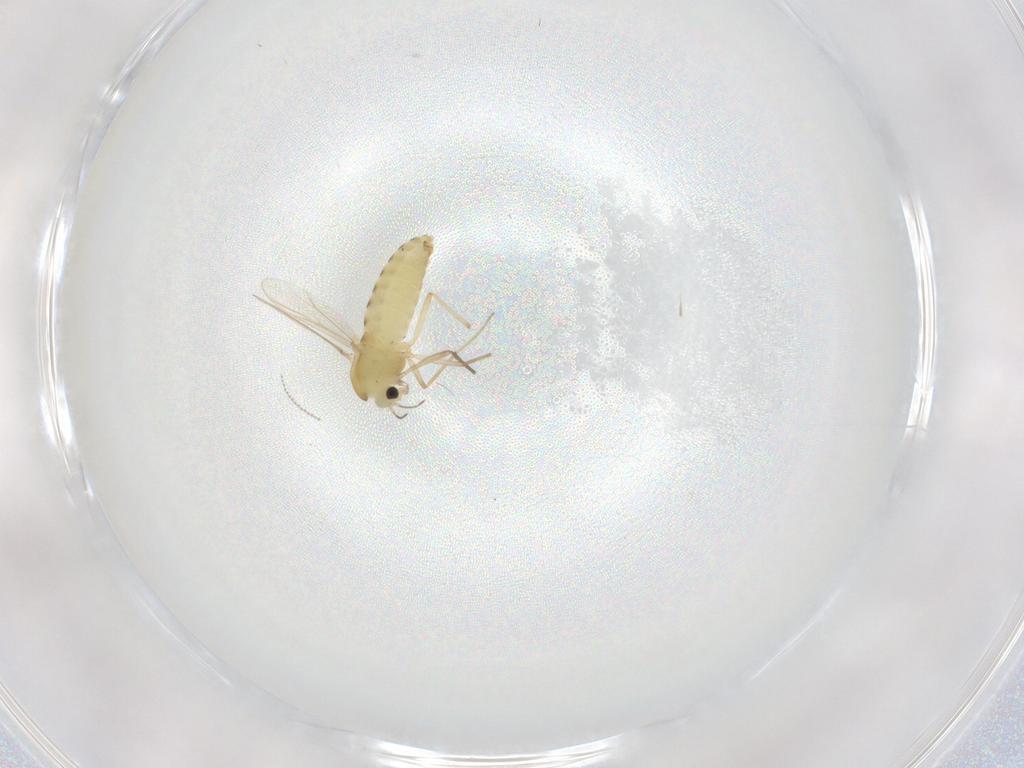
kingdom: Animalia
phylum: Arthropoda
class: Insecta
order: Diptera
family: Chironomidae
